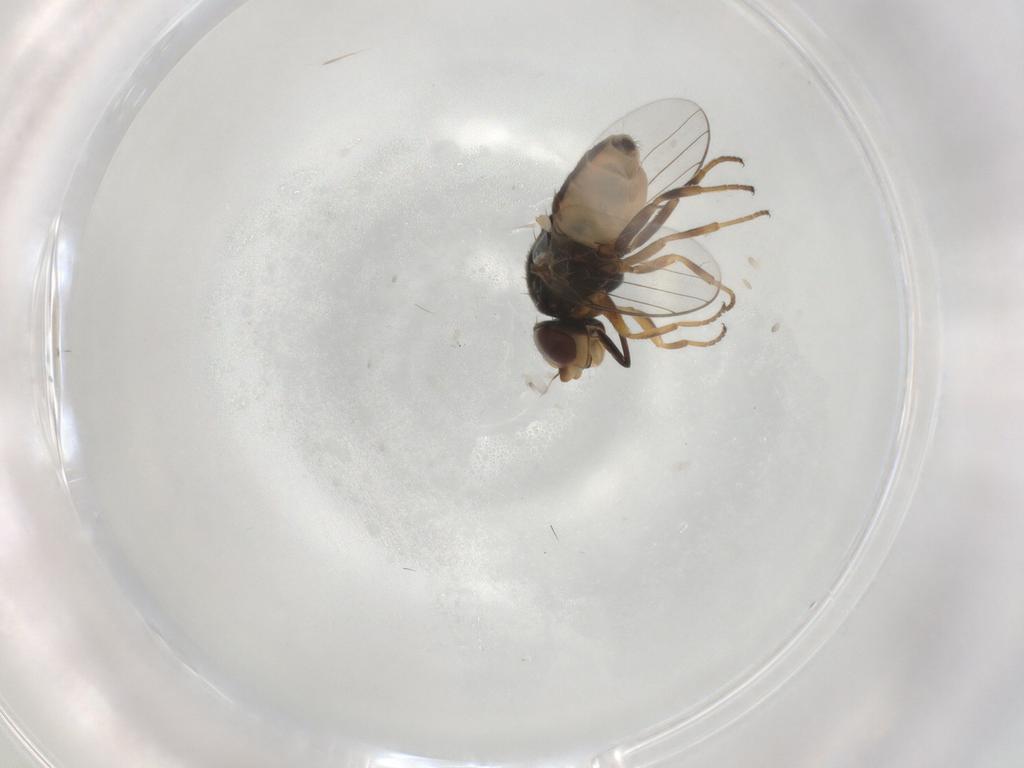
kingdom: Animalia
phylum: Arthropoda
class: Insecta
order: Diptera
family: Chloropidae
